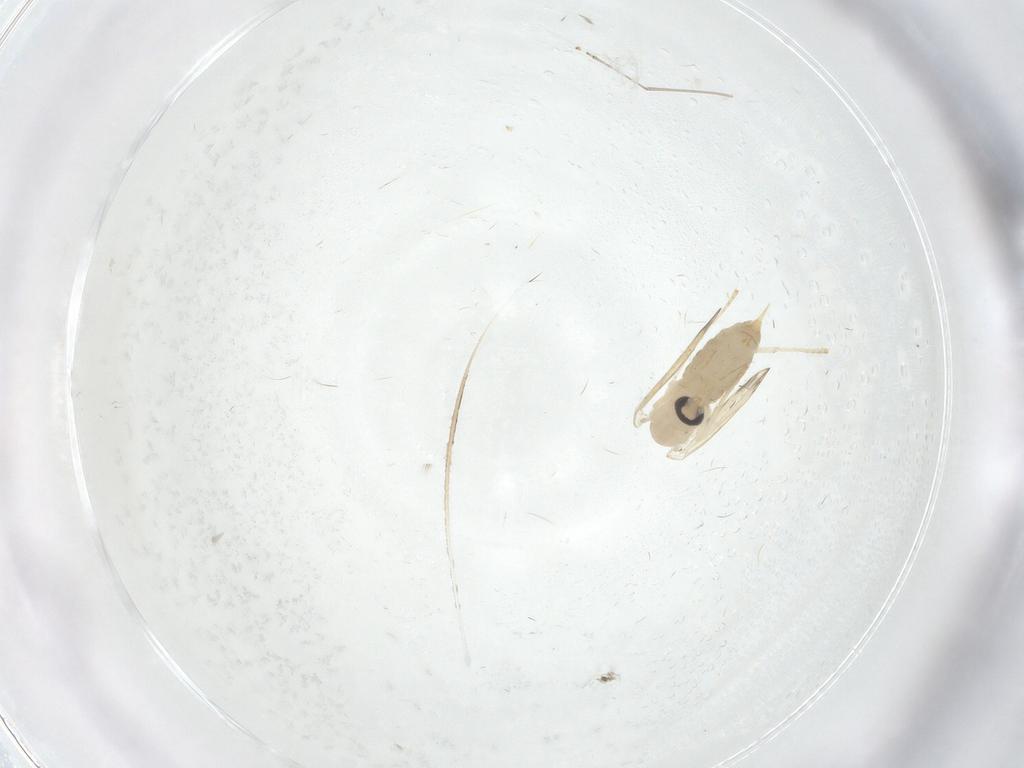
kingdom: Animalia
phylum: Arthropoda
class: Insecta
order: Diptera
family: Psychodidae
